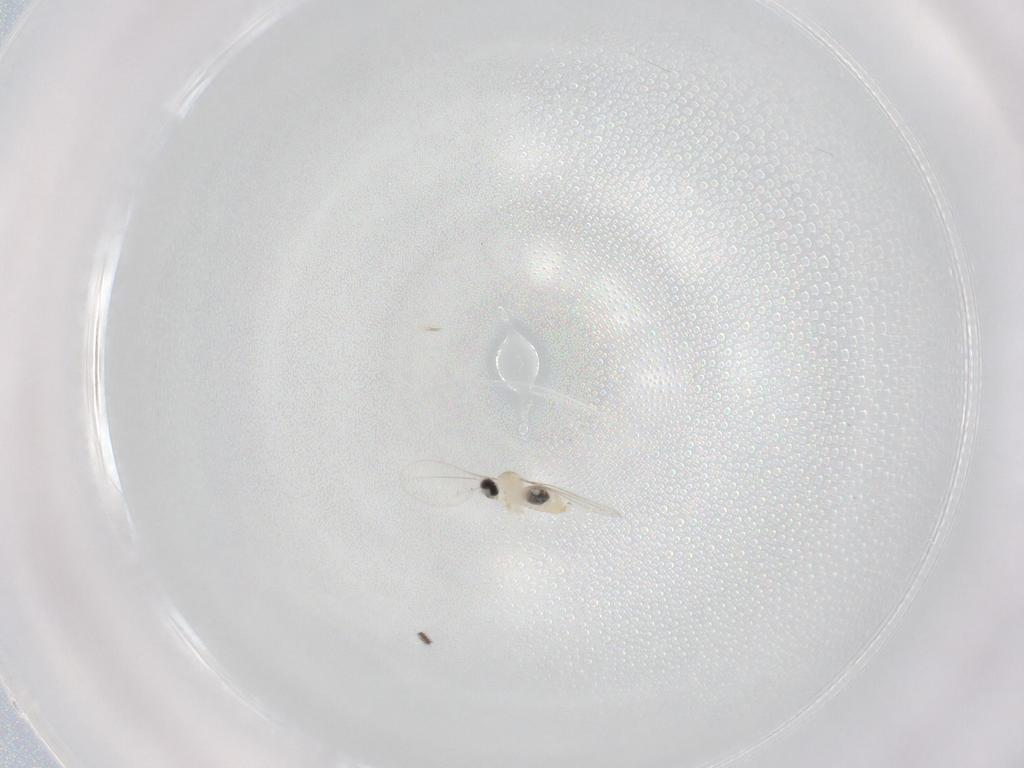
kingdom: Animalia
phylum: Arthropoda
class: Insecta
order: Diptera
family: Cecidomyiidae
